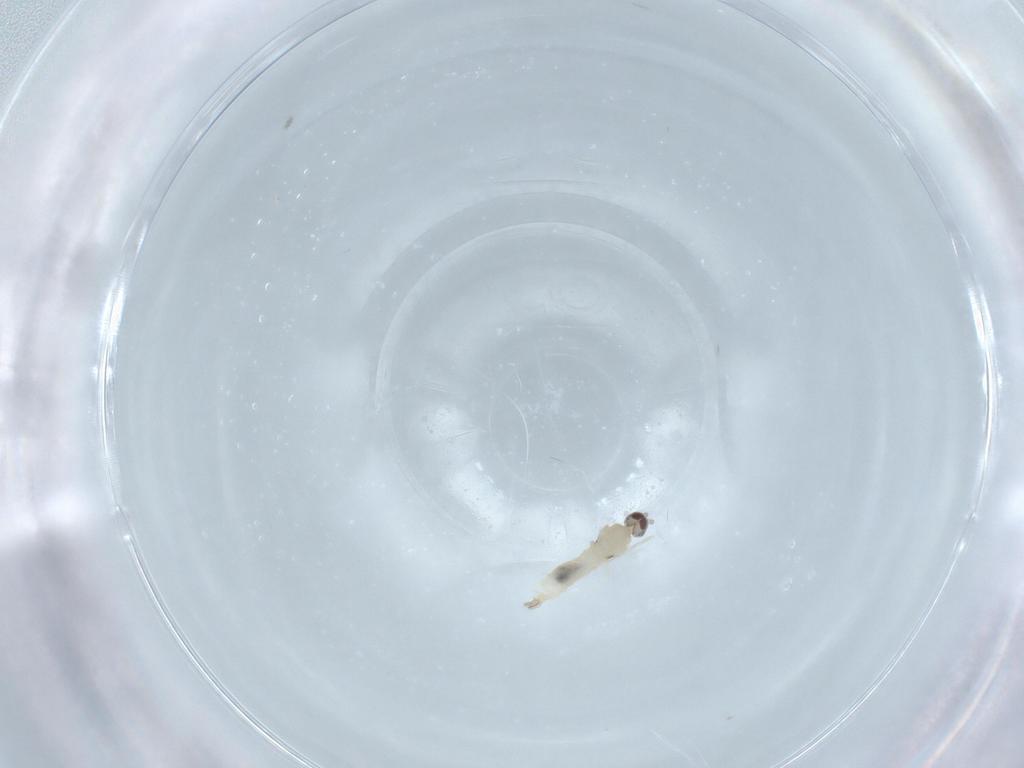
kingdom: Animalia
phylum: Arthropoda
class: Insecta
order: Diptera
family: Cecidomyiidae
